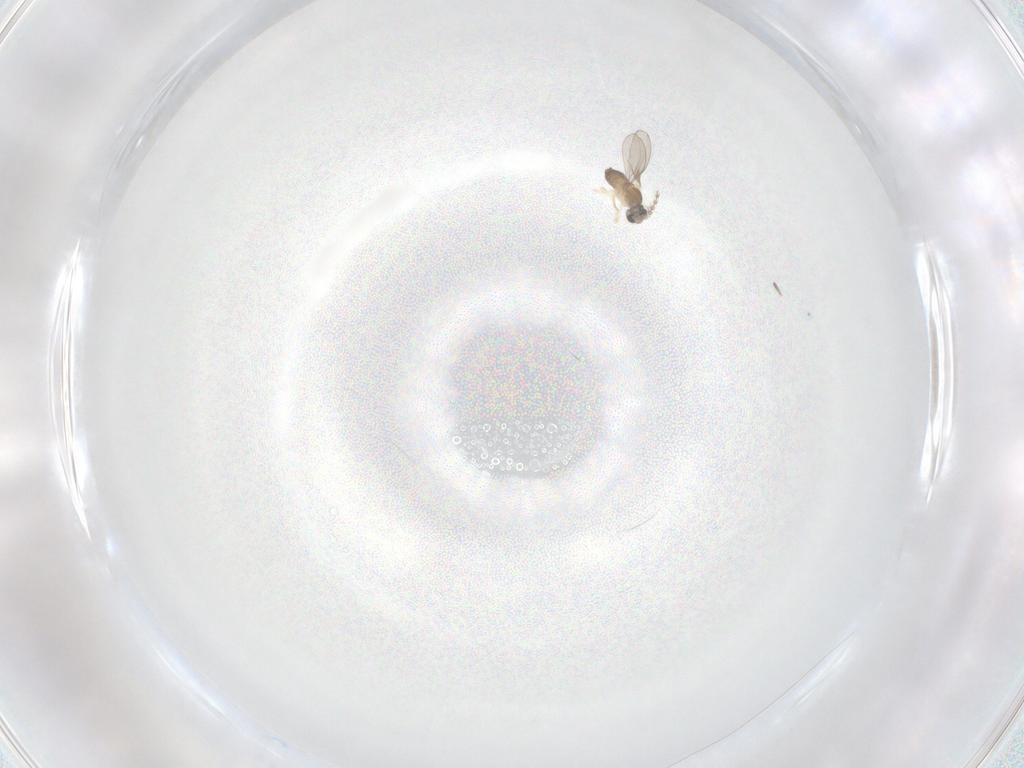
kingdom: Animalia
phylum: Arthropoda
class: Insecta
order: Diptera
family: Cecidomyiidae
